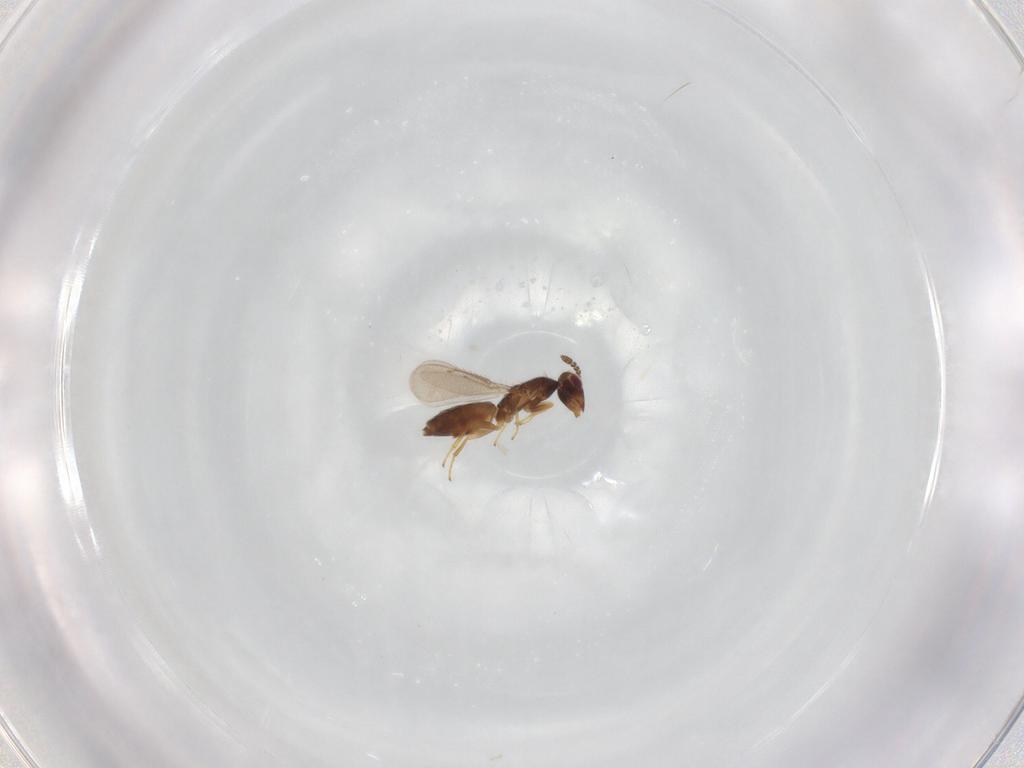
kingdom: Animalia
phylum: Arthropoda
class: Insecta
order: Hymenoptera
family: Eulophidae
